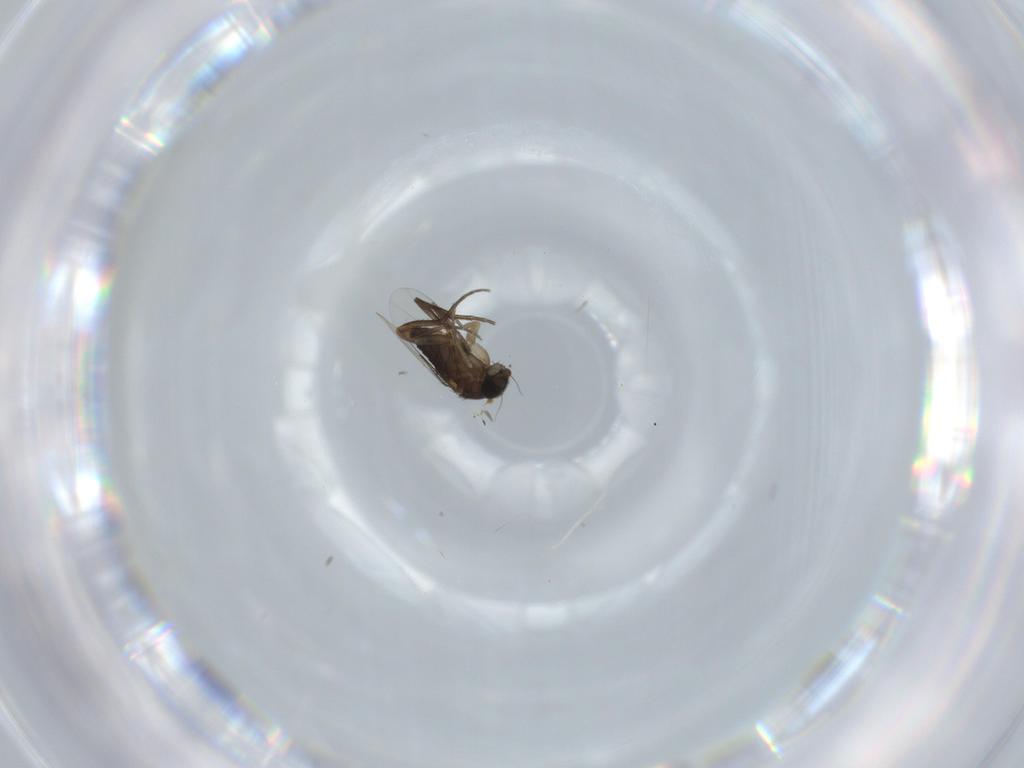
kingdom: Animalia
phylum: Arthropoda
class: Insecta
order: Diptera
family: Phoridae
